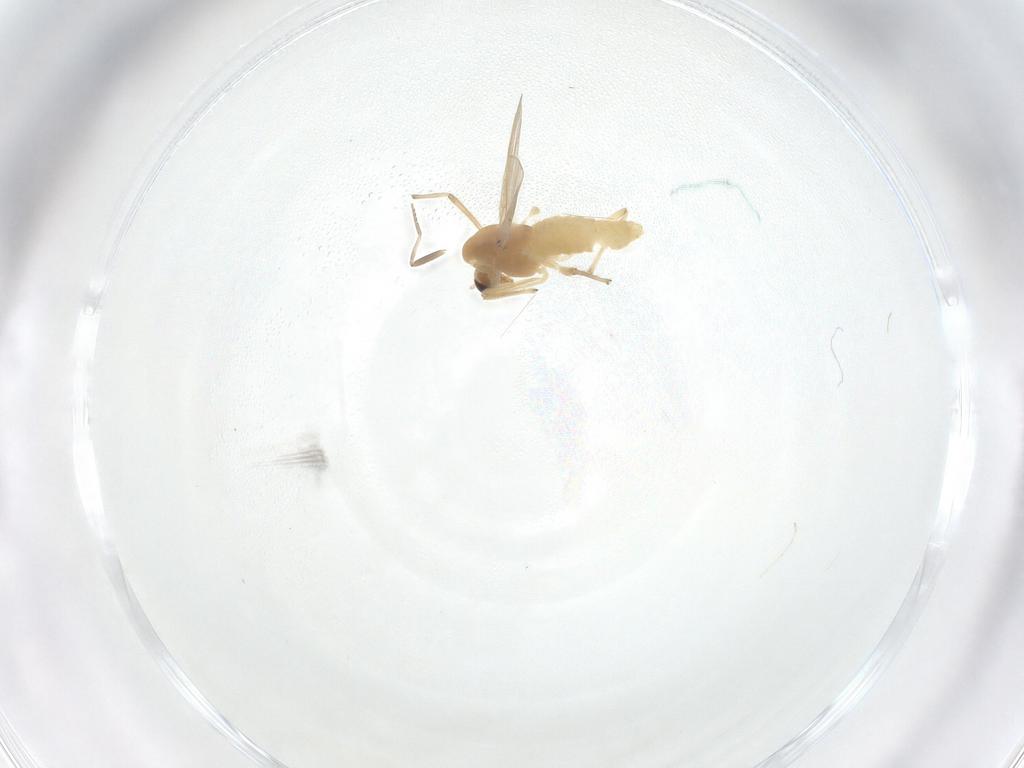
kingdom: Animalia
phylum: Arthropoda
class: Insecta
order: Diptera
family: Chironomidae
